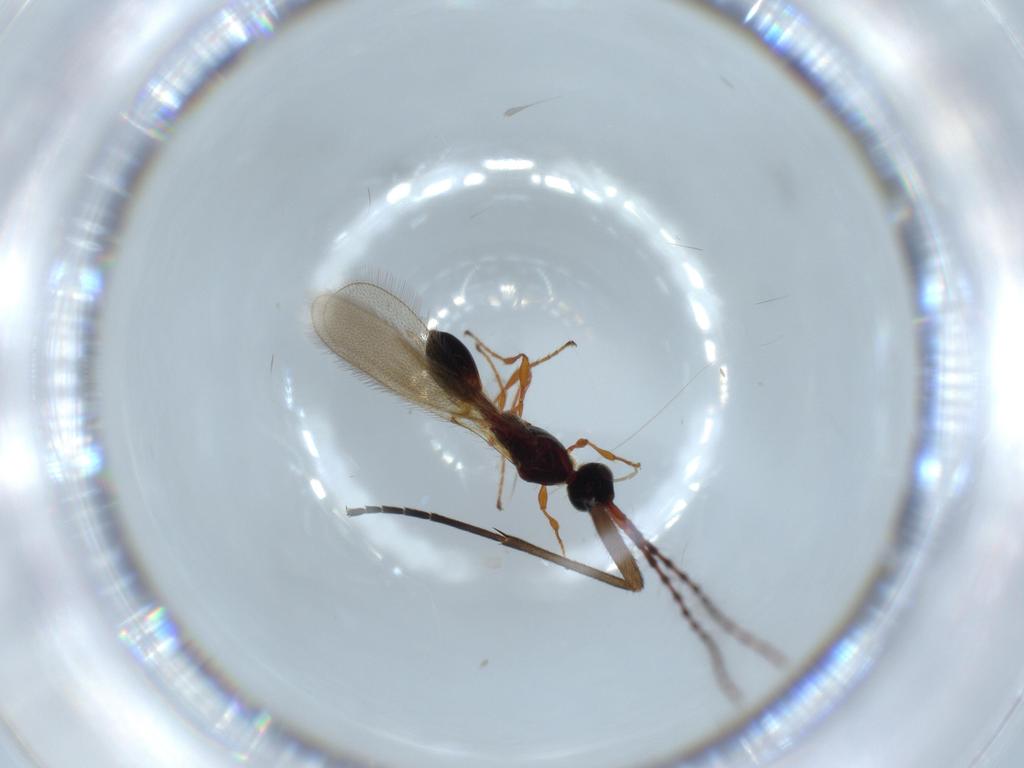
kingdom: Animalia
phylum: Arthropoda
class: Insecta
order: Hymenoptera
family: Diapriidae
